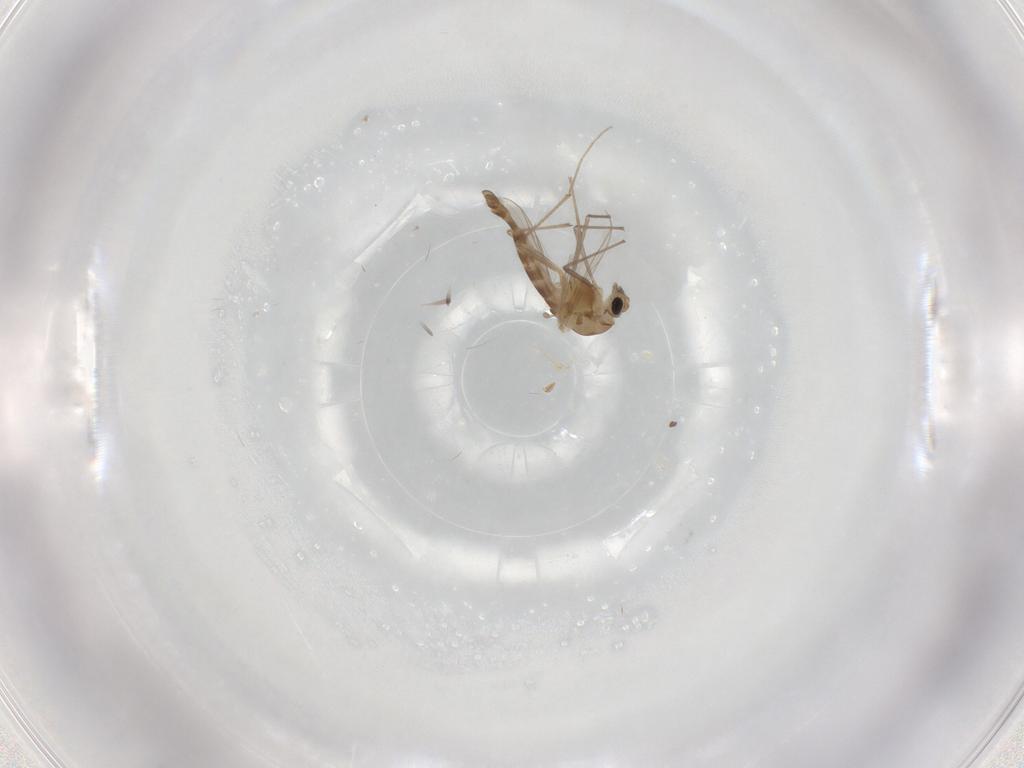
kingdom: Animalia
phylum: Arthropoda
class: Insecta
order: Diptera
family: Chironomidae
